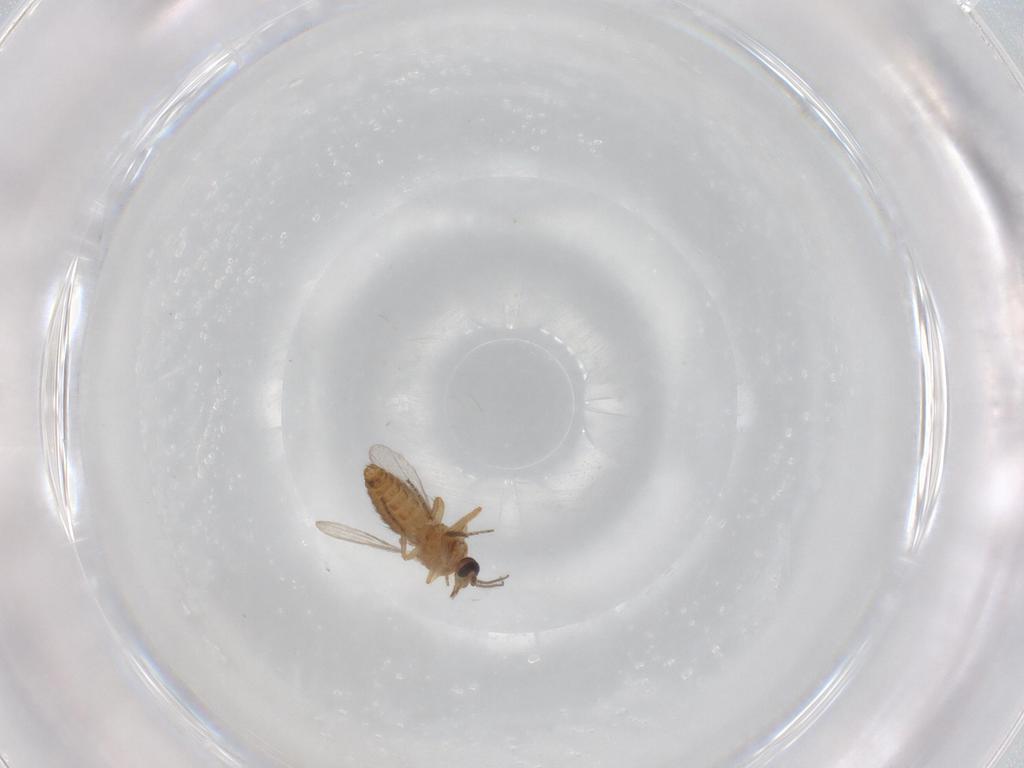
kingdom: Animalia
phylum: Arthropoda
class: Insecta
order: Diptera
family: Ceratopogonidae
